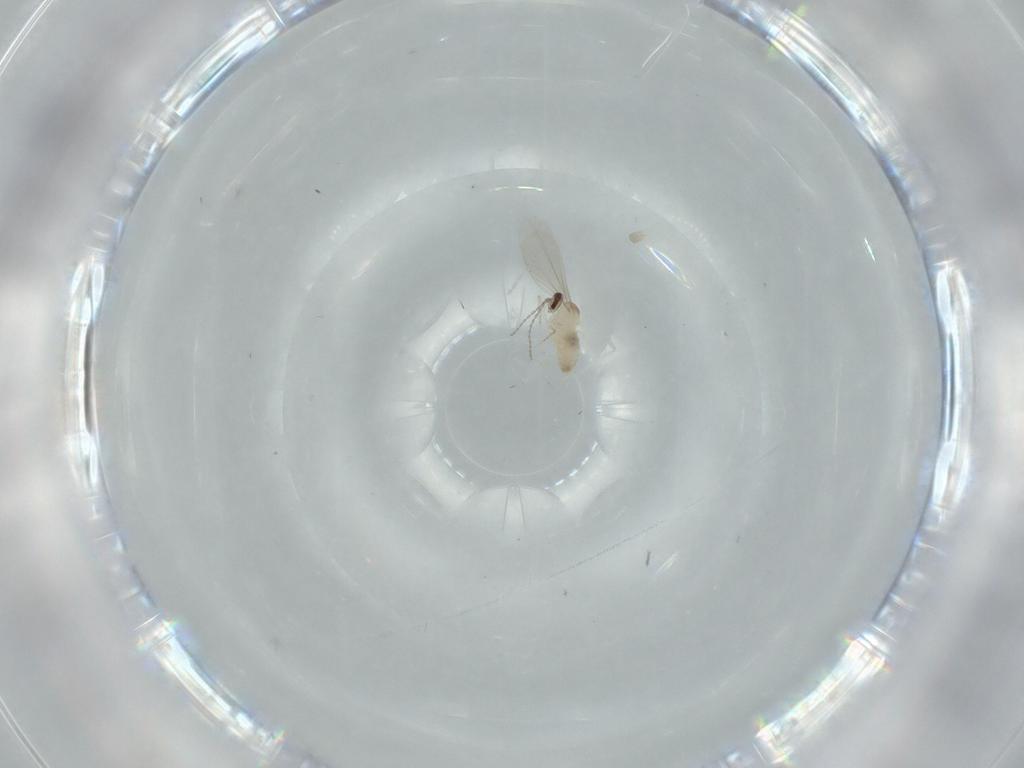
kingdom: Animalia
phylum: Arthropoda
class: Insecta
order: Diptera
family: Cecidomyiidae
